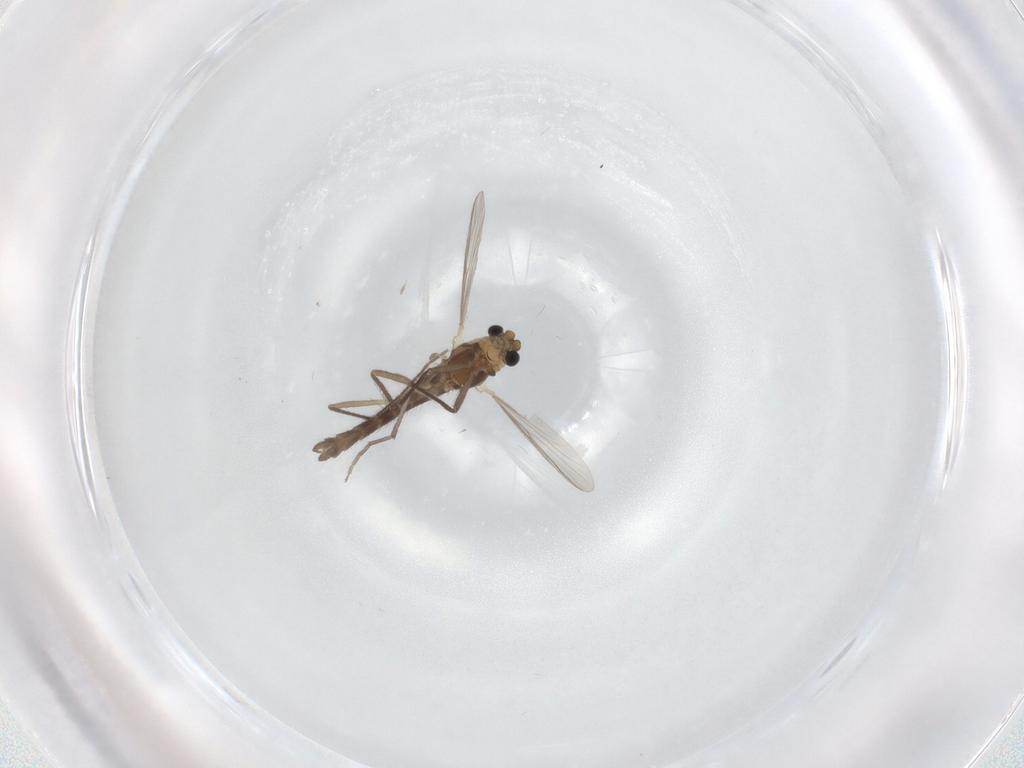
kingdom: Animalia
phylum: Arthropoda
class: Insecta
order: Diptera
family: Chironomidae
